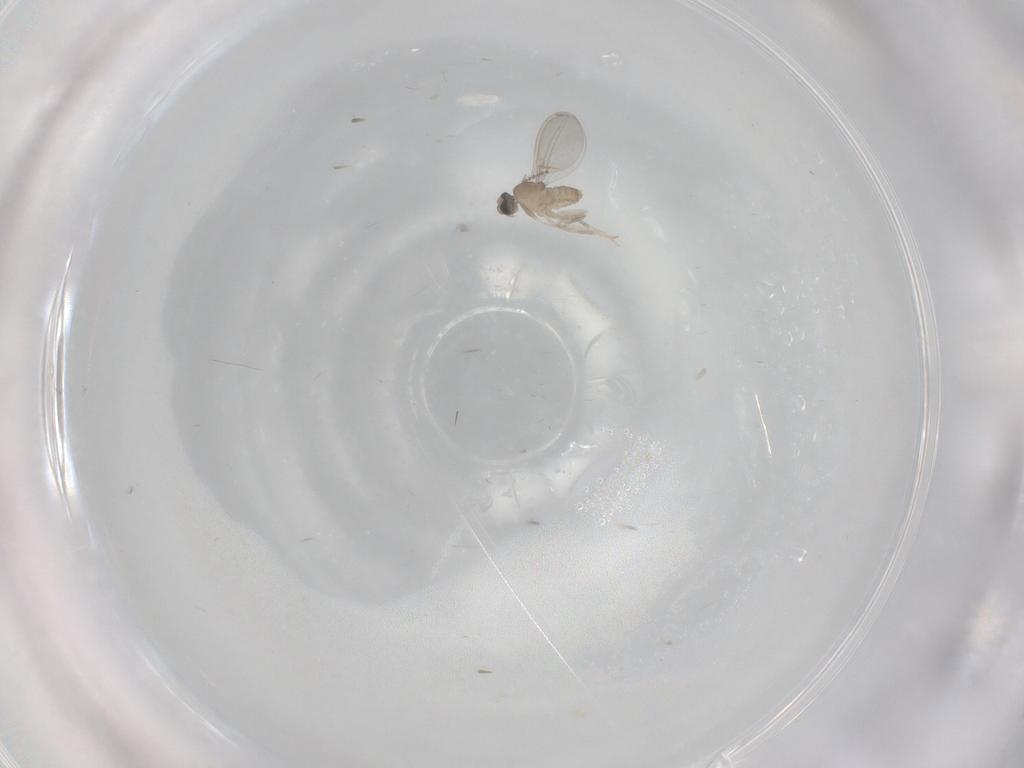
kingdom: Animalia
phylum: Arthropoda
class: Insecta
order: Diptera
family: Cecidomyiidae
